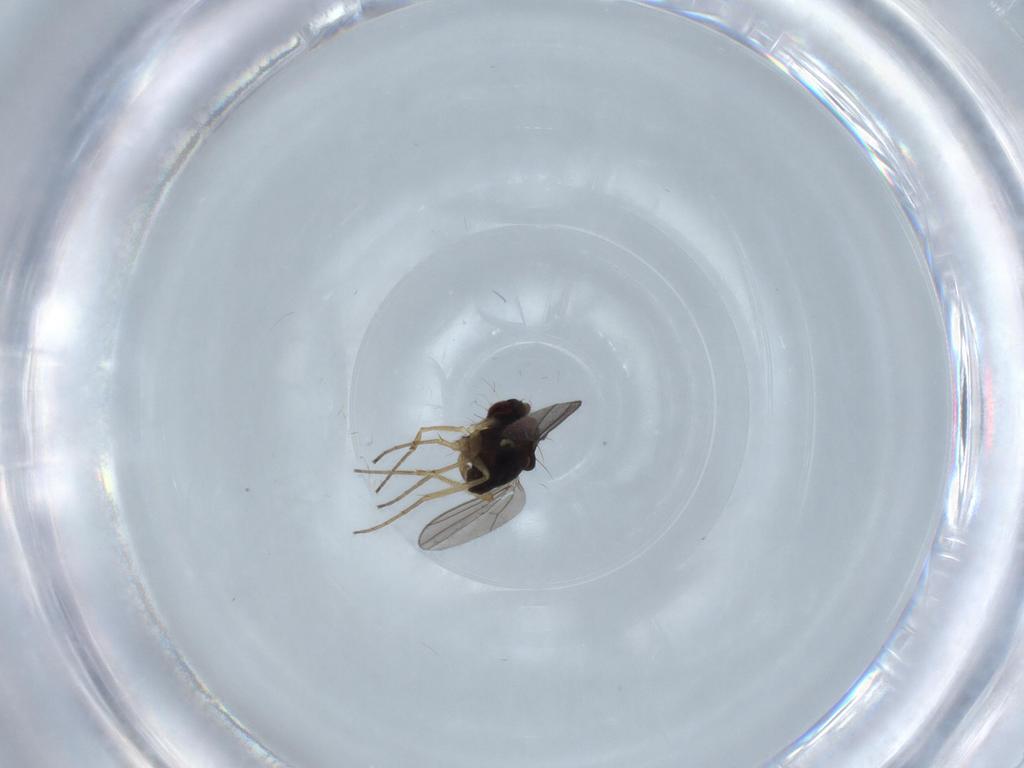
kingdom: Animalia
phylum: Arthropoda
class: Insecta
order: Diptera
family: Dolichopodidae
